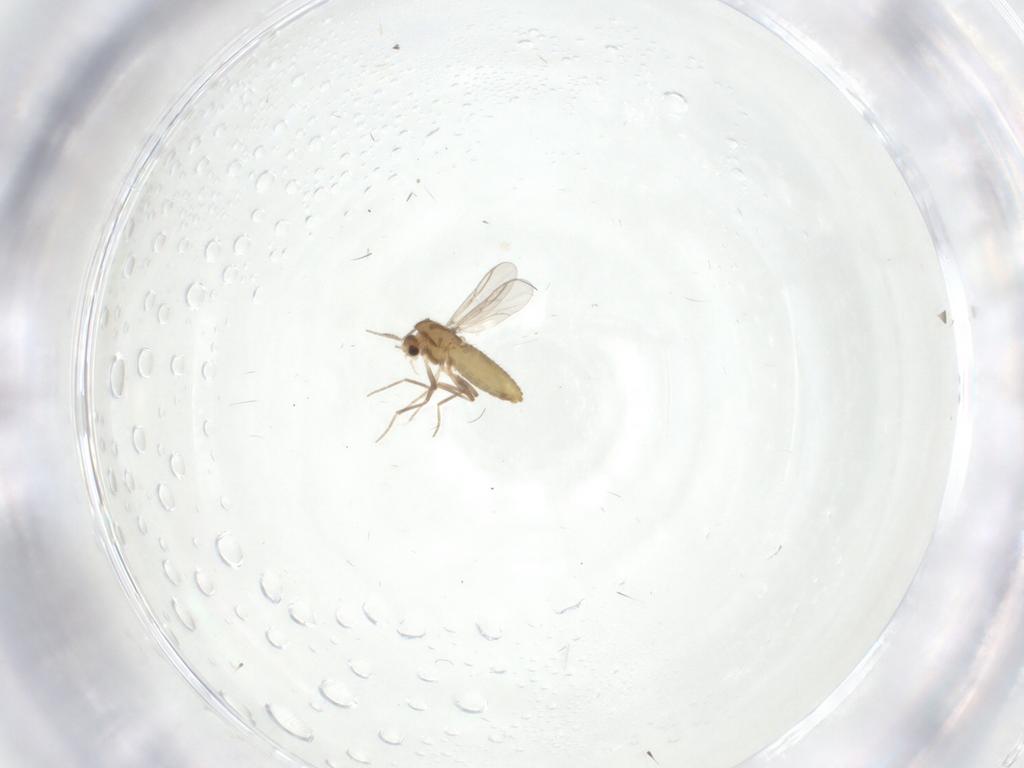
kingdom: Animalia
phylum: Arthropoda
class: Insecta
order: Diptera
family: Chironomidae
